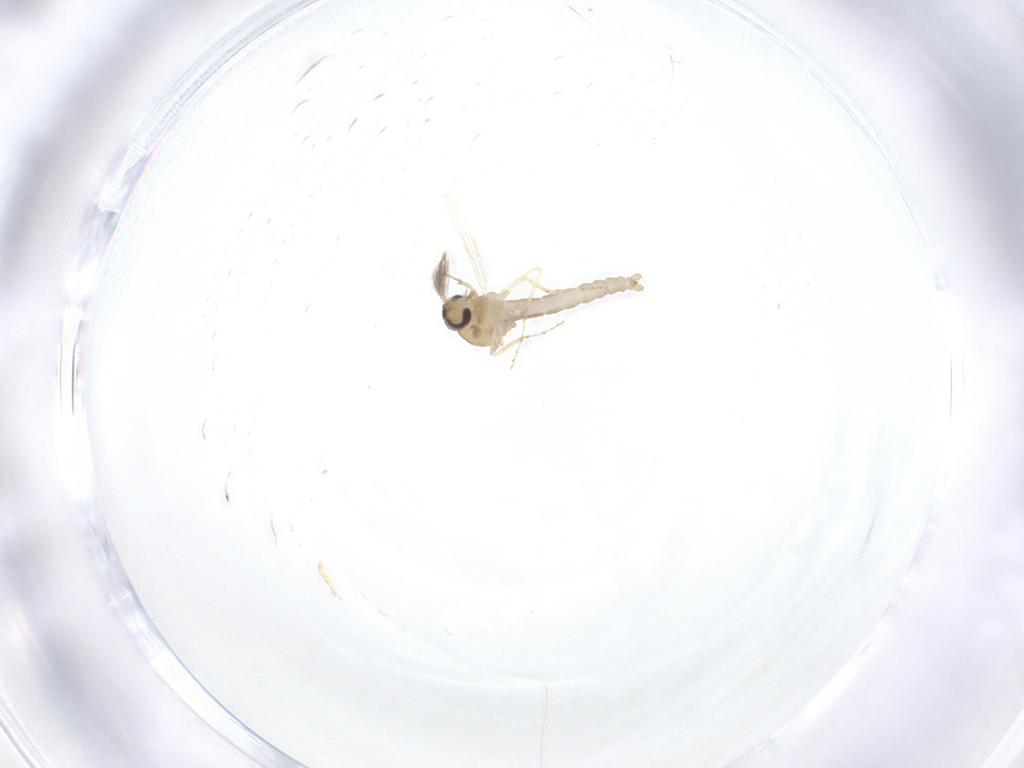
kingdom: Animalia
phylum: Arthropoda
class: Insecta
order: Diptera
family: Ceratopogonidae
